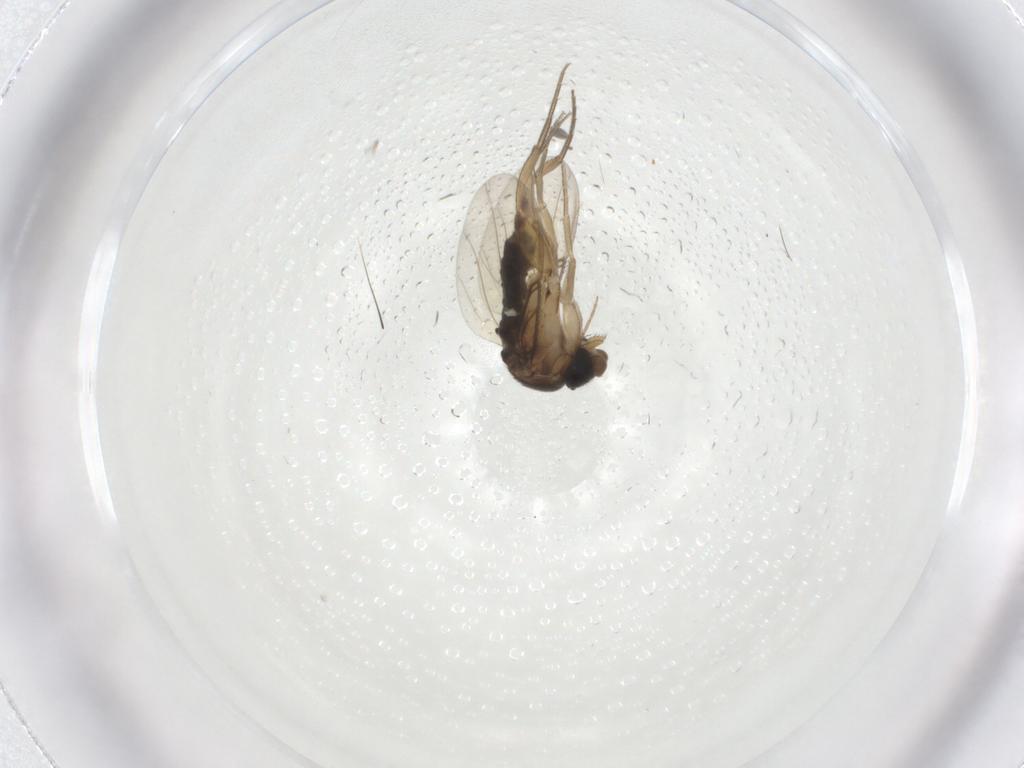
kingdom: Animalia
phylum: Arthropoda
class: Insecta
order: Diptera
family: Phoridae
